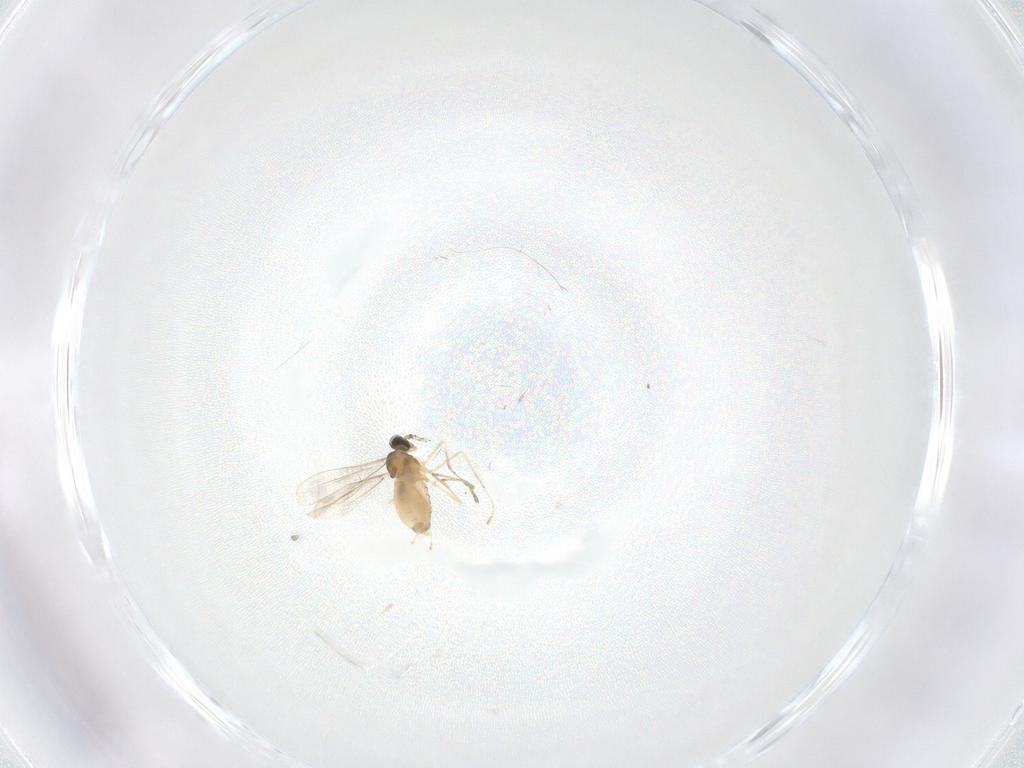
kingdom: Animalia
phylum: Arthropoda
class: Insecta
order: Diptera
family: Cecidomyiidae
